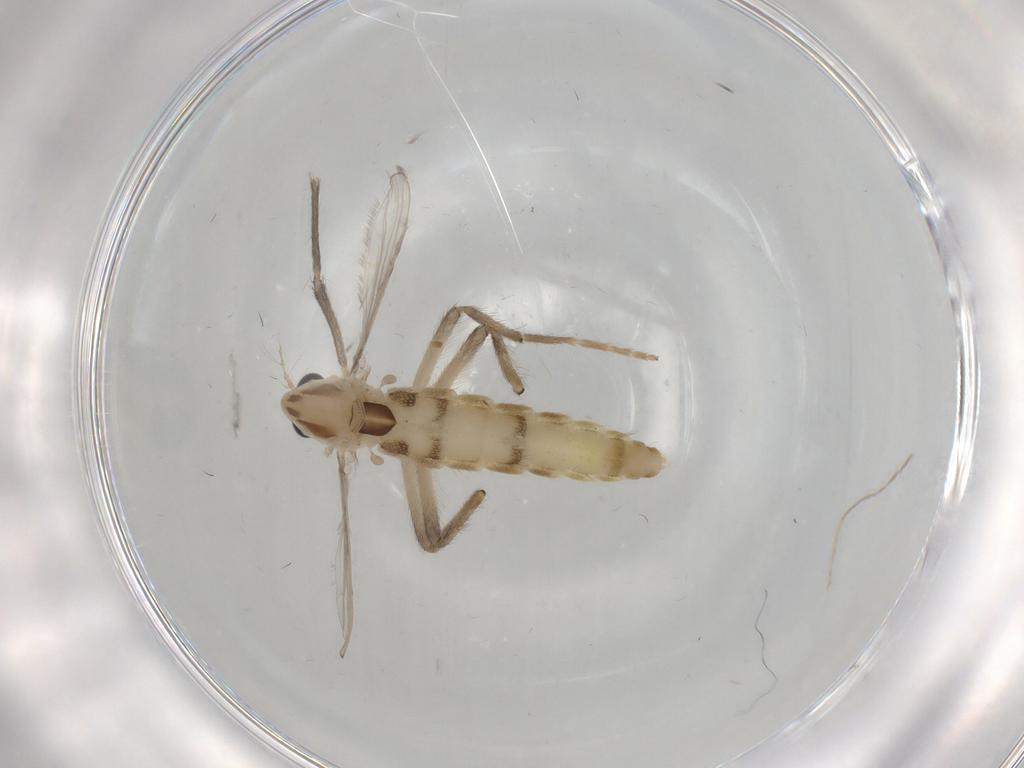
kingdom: Animalia
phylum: Arthropoda
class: Insecta
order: Diptera
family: Chironomidae
